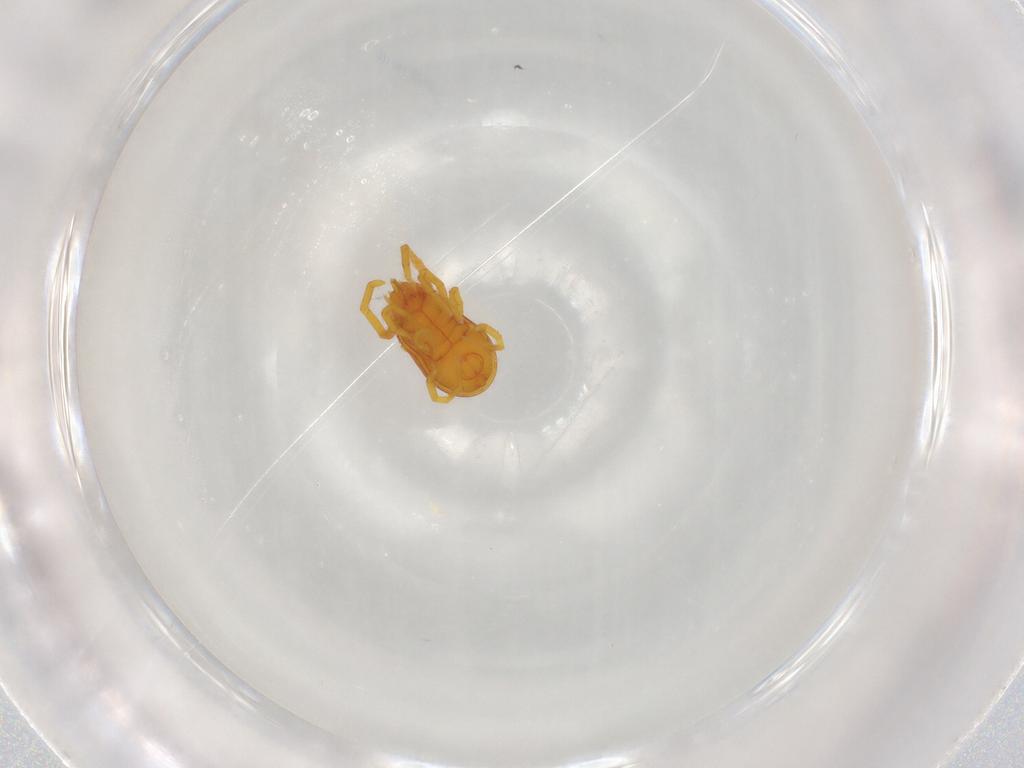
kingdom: Animalia
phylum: Arthropoda
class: Arachnida
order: Trombidiformes
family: Labidostommidae
